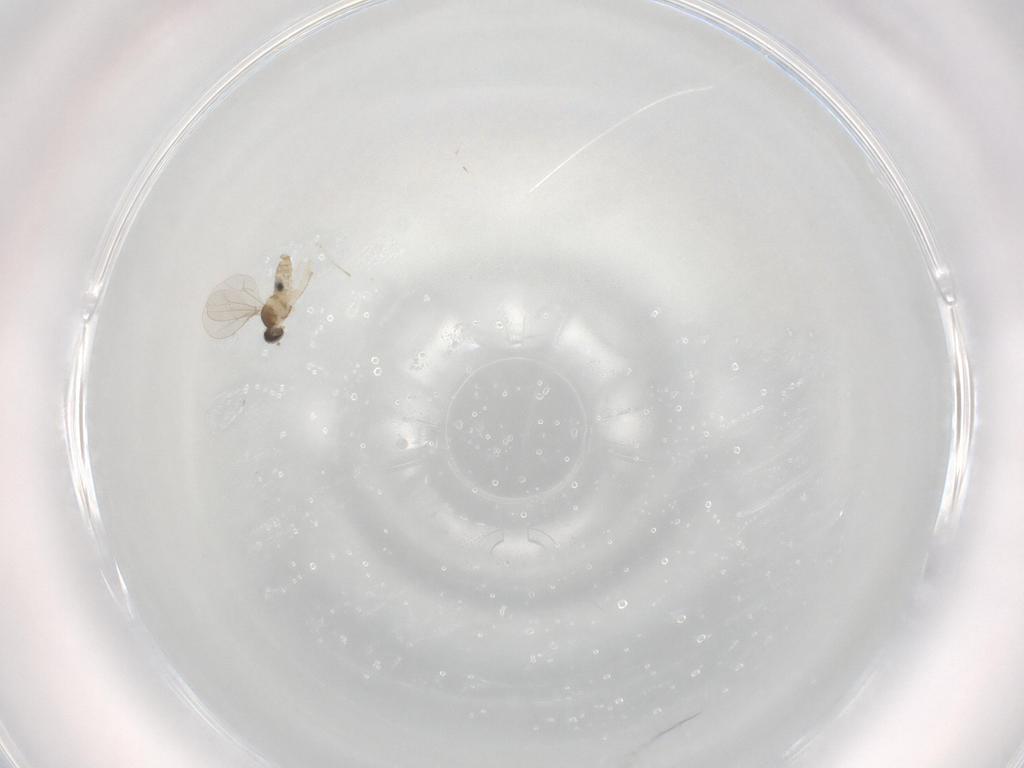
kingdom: Animalia
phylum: Arthropoda
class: Insecta
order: Diptera
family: Cecidomyiidae
